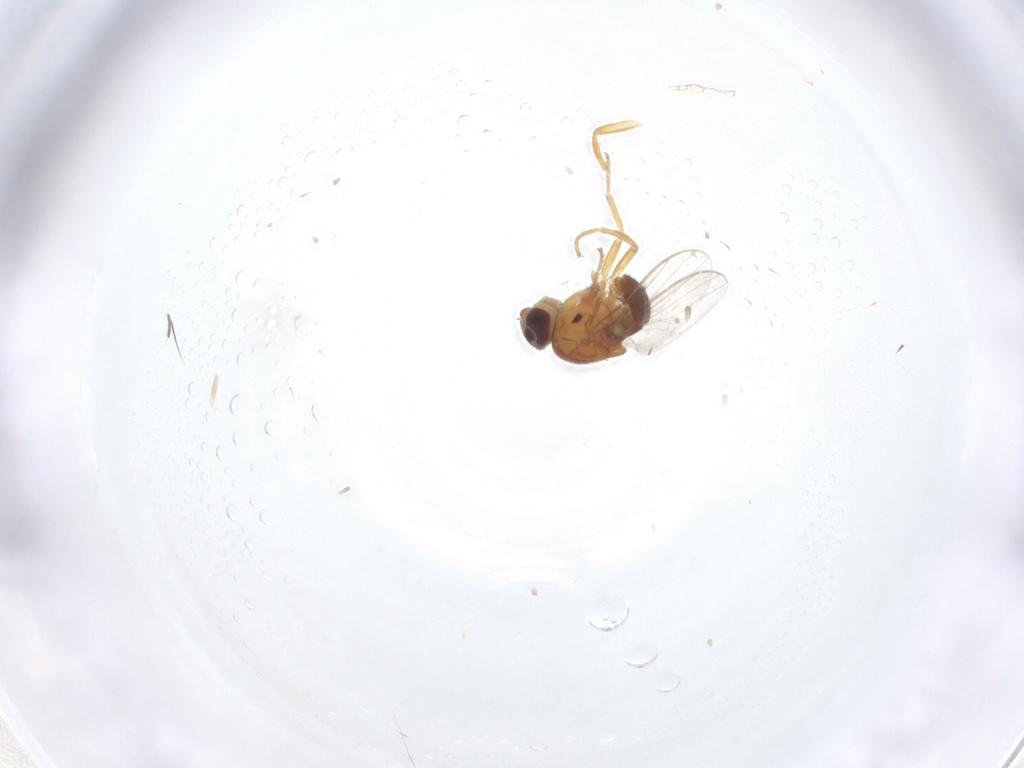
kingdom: Animalia
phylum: Arthropoda
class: Insecta
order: Diptera
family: Chloropidae
